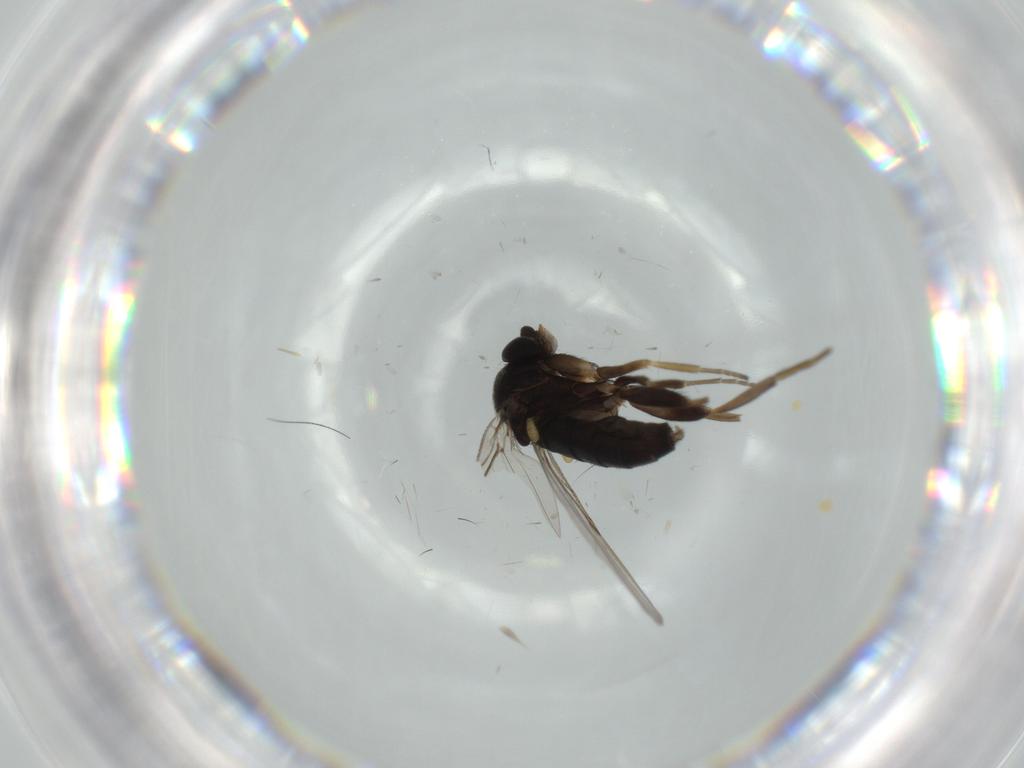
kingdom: Animalia
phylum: Arthropoda
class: Insecta
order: Diptera
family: Phoridae
